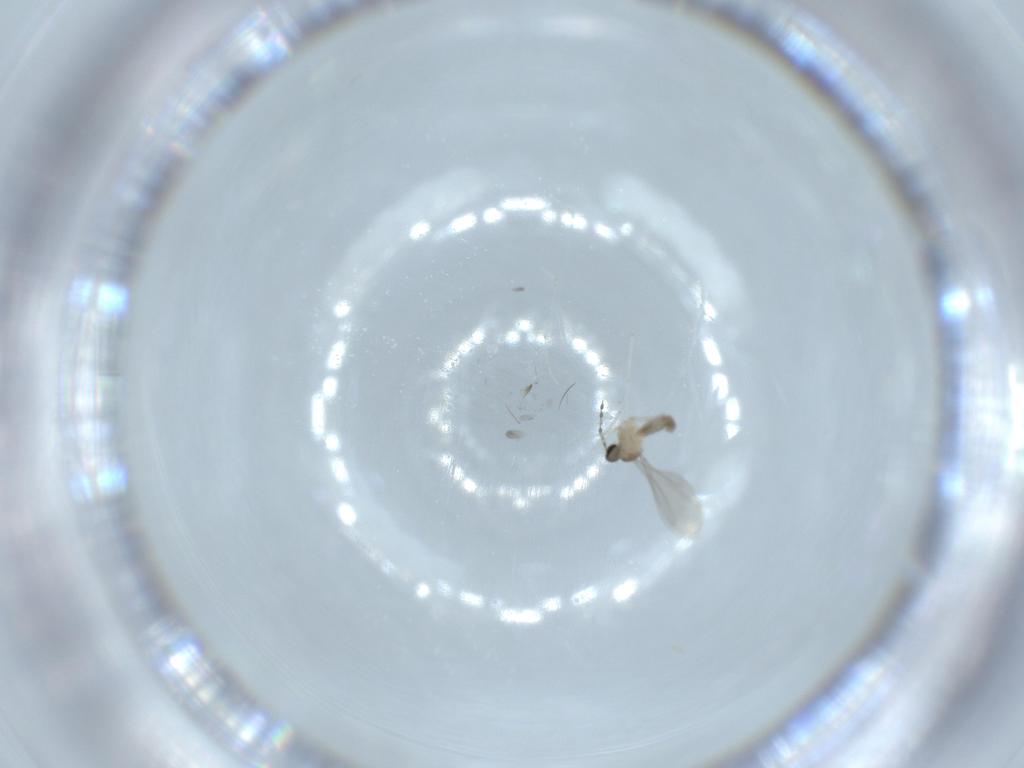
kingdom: Animalia
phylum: Arthropoda
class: Insecta
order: Diptera
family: Cecidomyiidae
